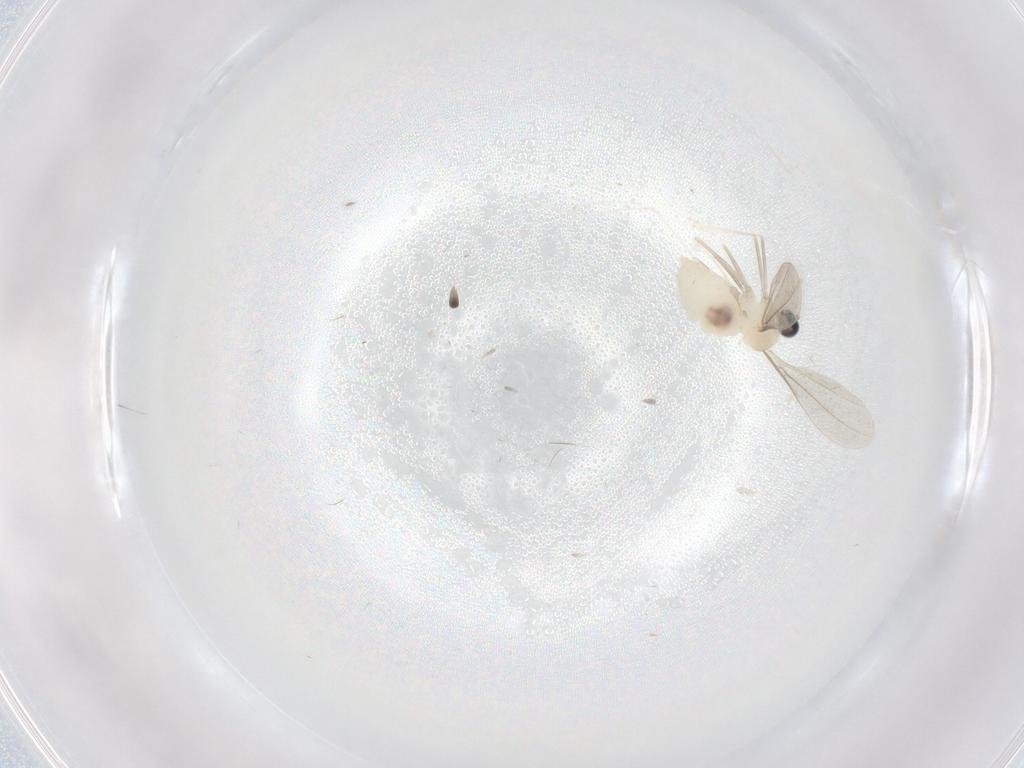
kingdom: Animalia
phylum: Arthropoda
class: Insecta
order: Diptera
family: Cecidomyiidae
